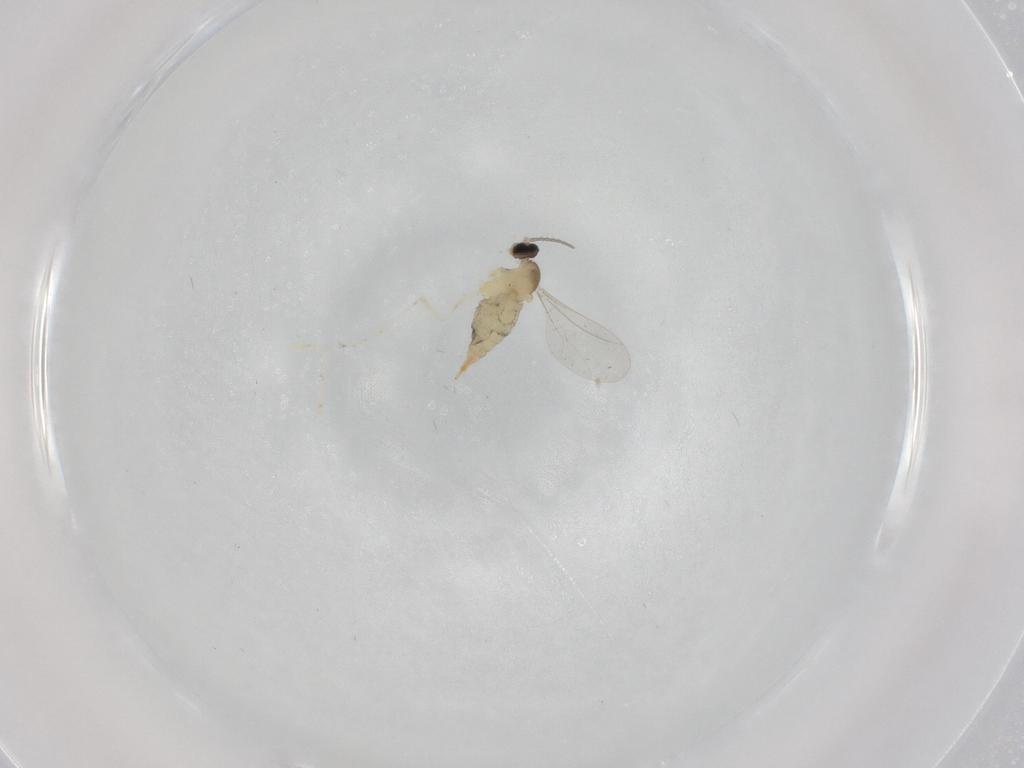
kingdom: Animalia
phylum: Arthropoda
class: Insecta
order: Diptera
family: Cecidomyiidae
